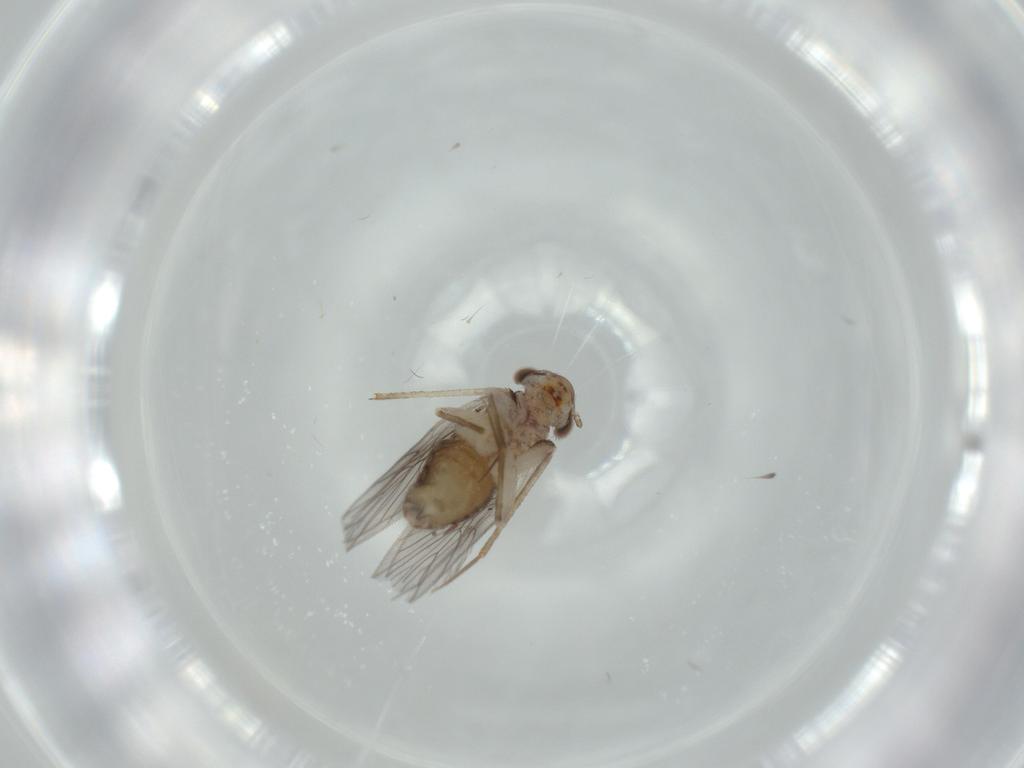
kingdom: Animalia
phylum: Arthropoda
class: Insecta
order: Psocodea
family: Lepidopsocidae
